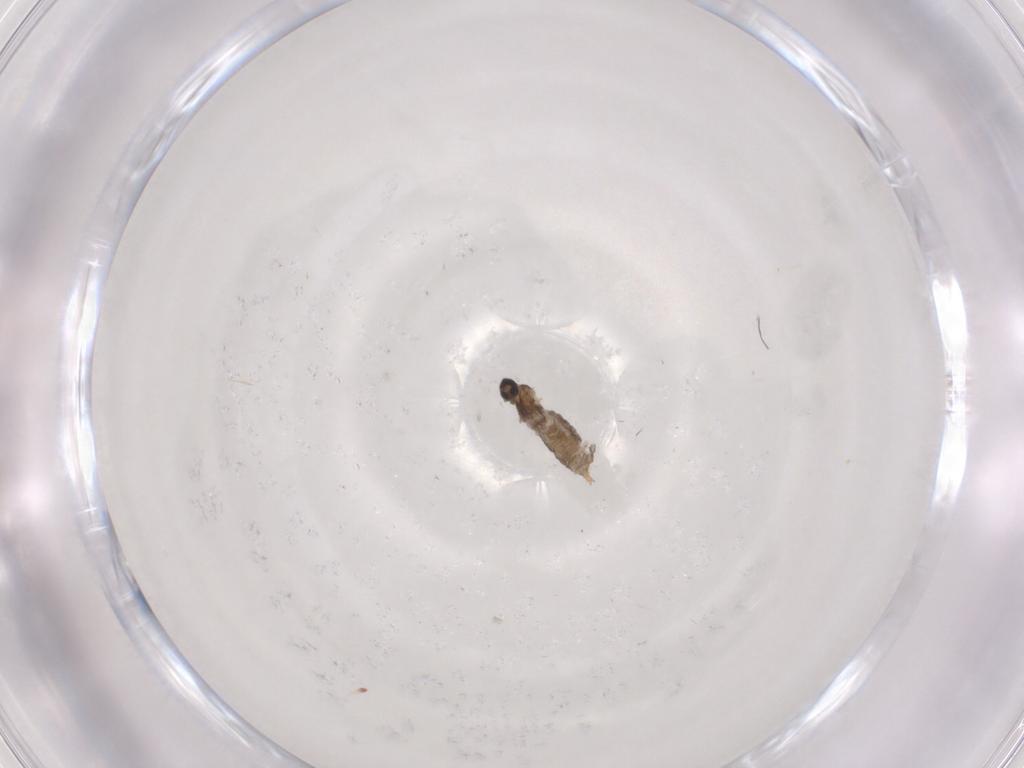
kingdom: Animalia
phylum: Arthropoda
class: Insecta
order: Diptera
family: Cecidomyiidae
